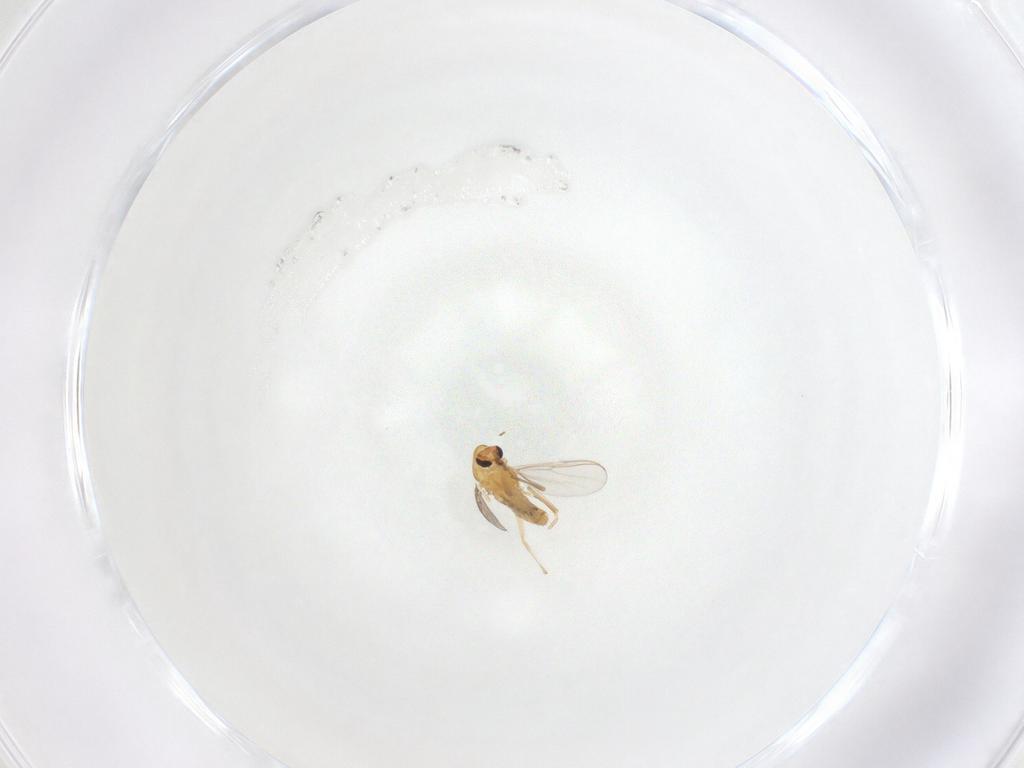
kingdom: Animalia
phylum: Arthropoda
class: Insecta
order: Diptera
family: Chironomidae
